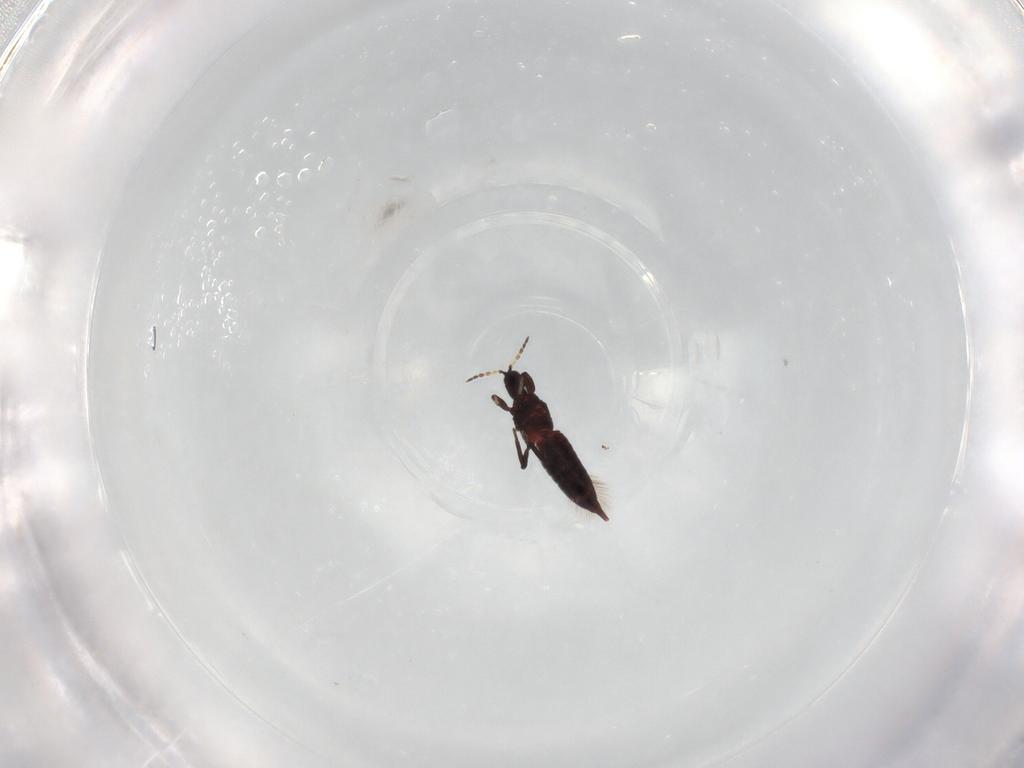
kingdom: Animalia
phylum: Arthropoda
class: Insecta
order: Thysanoptera
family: Phlaeothripidae
